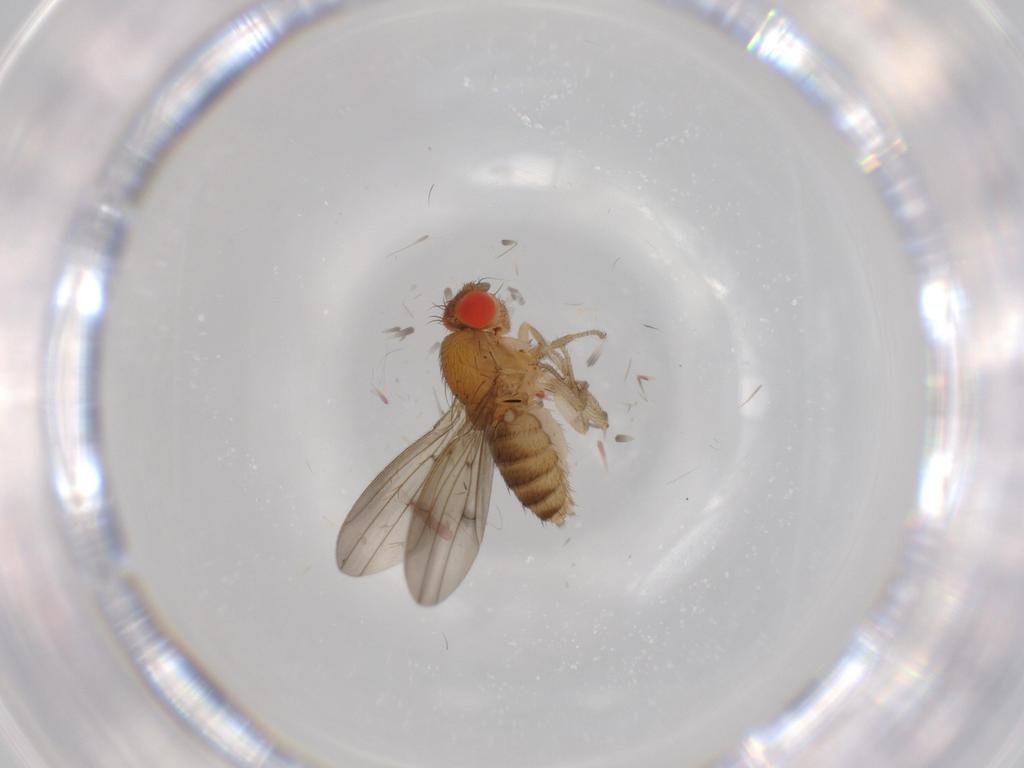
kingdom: Animalia
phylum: Arthropoda
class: Insecta
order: Diptera
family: Drosophilidae
